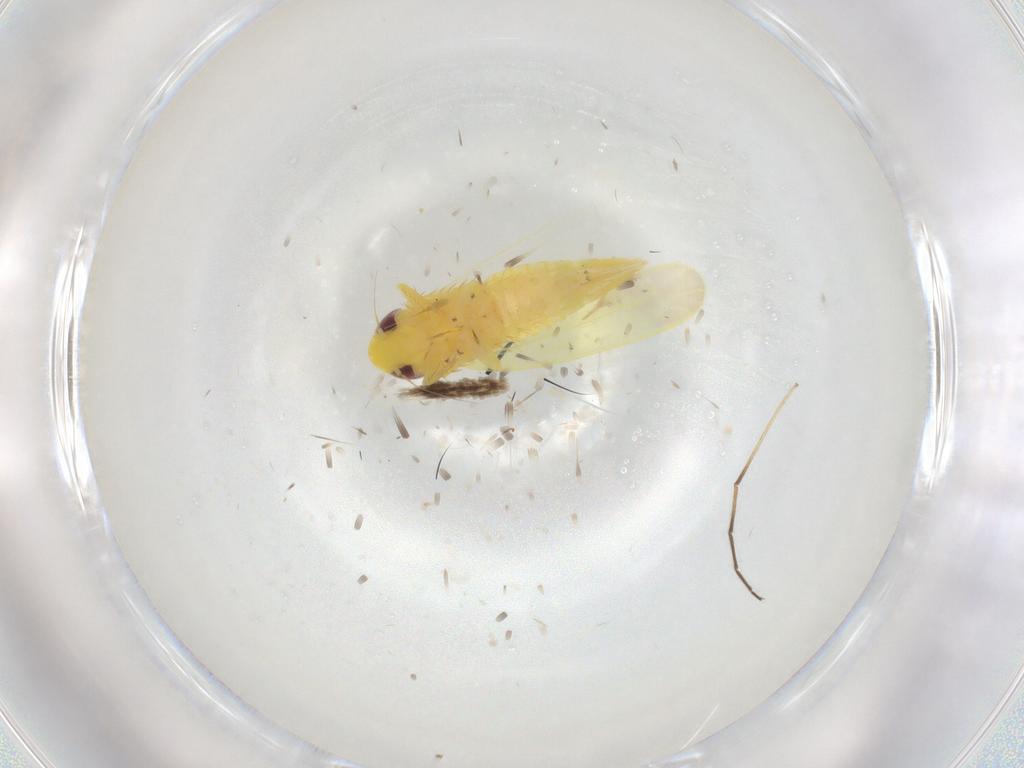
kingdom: Animalia
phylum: Arthropoda
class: Insecta
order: Hemiptera
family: Cicadellidae
